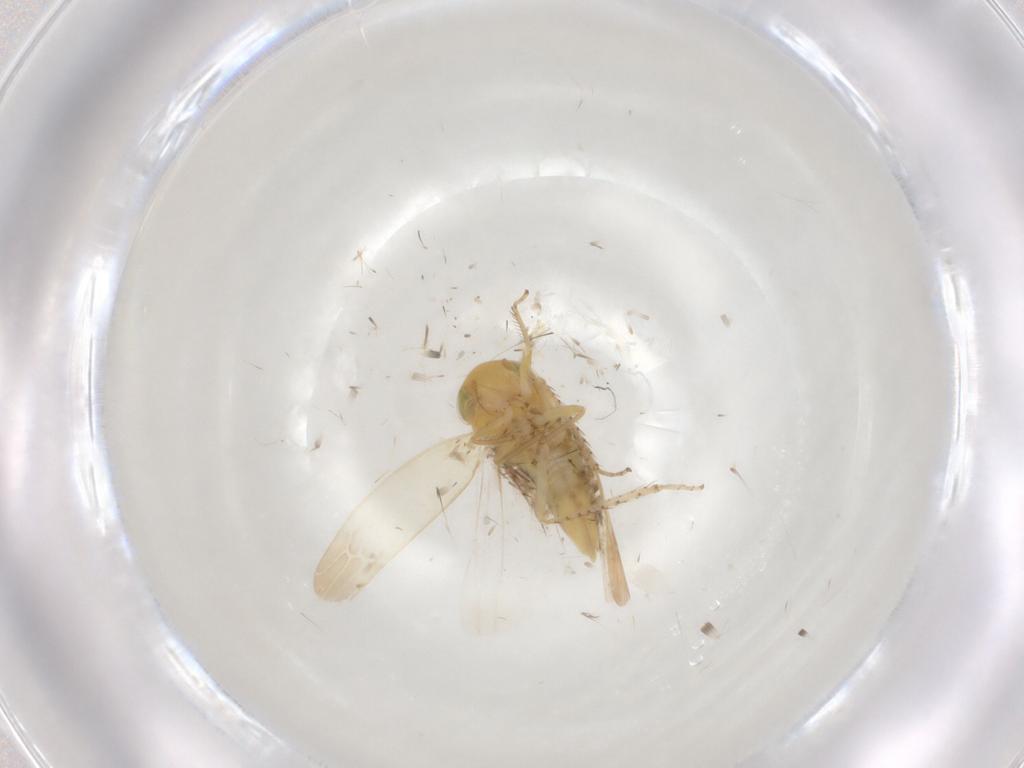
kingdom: Animalia
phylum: Arthropoda
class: Insecta
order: Hemiptera
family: Cicadellidae
